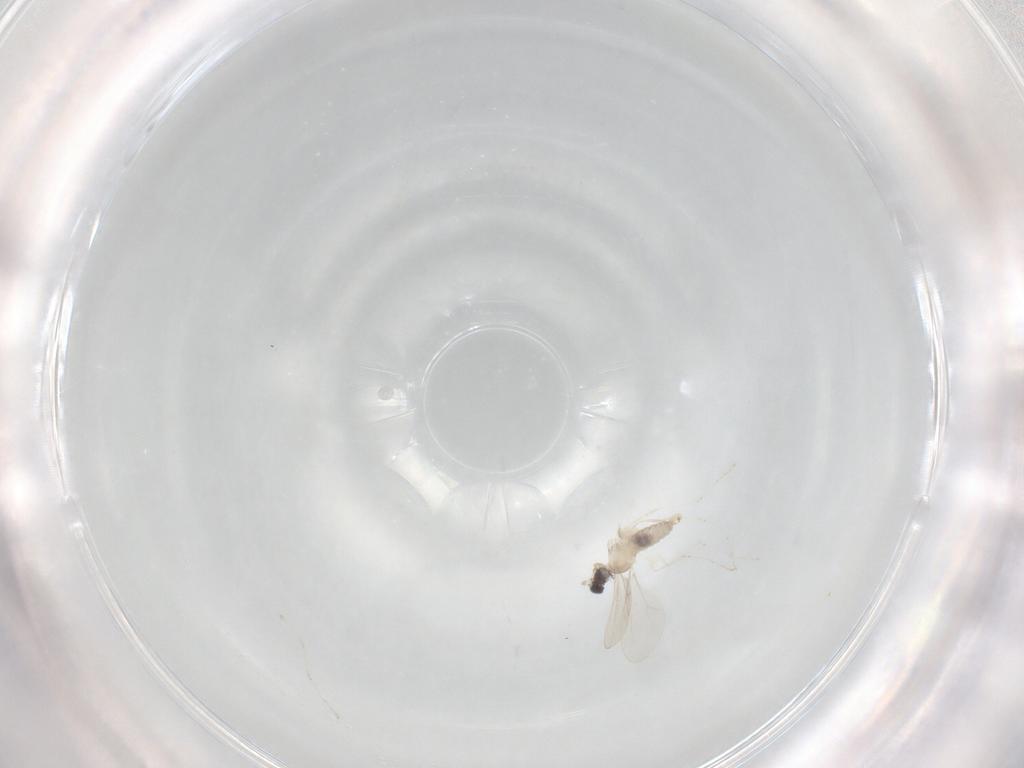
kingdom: Animalia
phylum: Arthropoda
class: Insecta
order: Diptera
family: Cecidomyiidae
